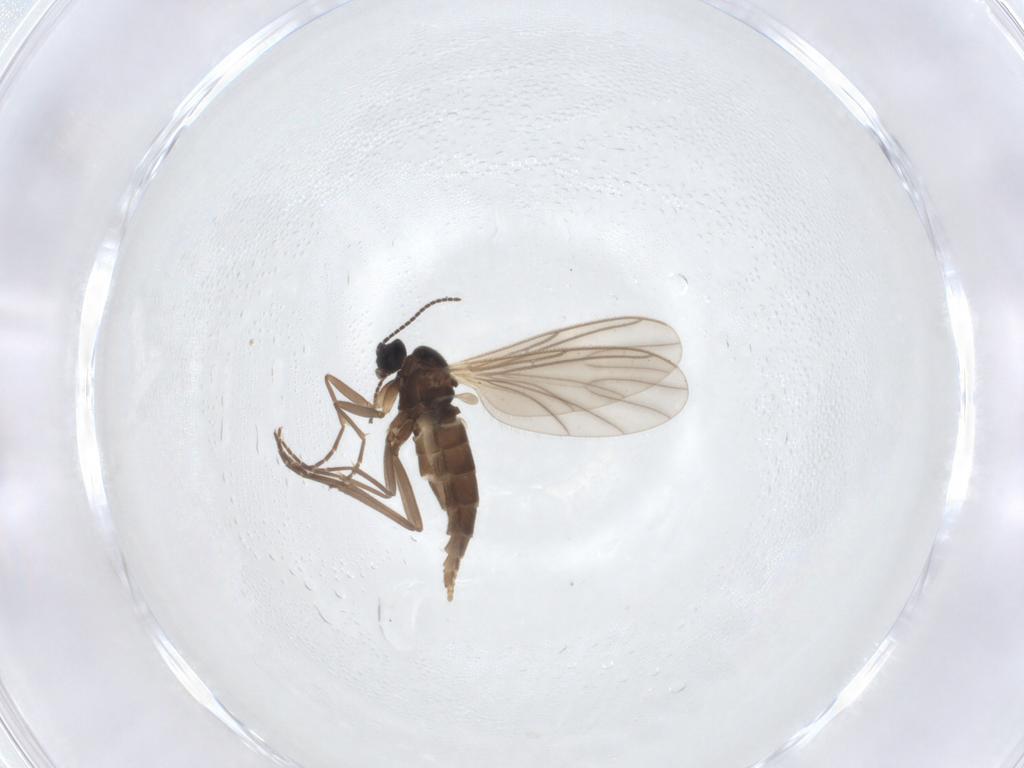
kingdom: Animalia
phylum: Arthropoda
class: Insecta
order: Diptera
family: Sciaridae
